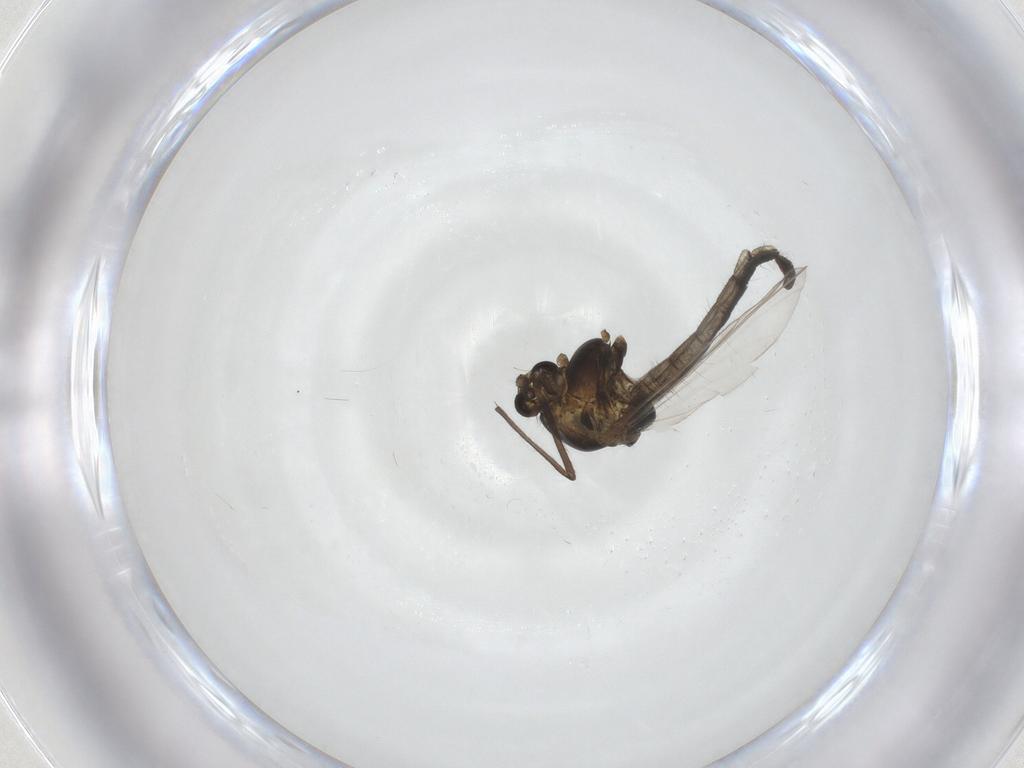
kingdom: Animalia
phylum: Arthropoda
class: Insecta
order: Diptera
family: Chironomidae
